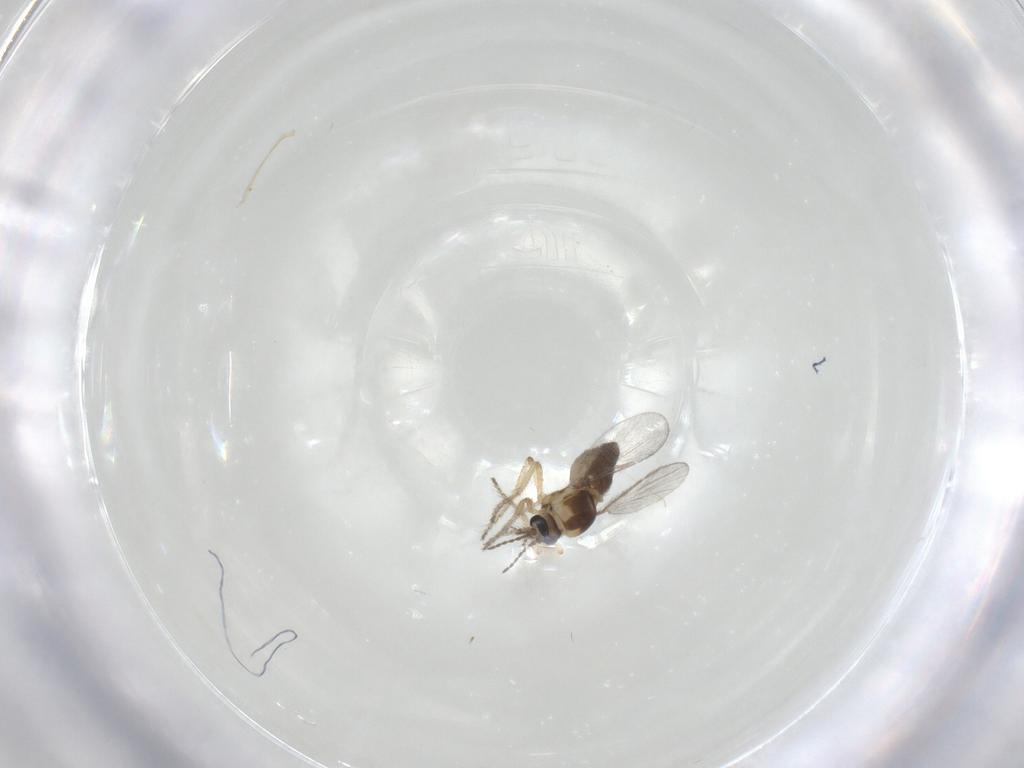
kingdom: Animalia
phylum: Arthropoda
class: Insecta
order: Diptera
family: Ceratopogonidae
